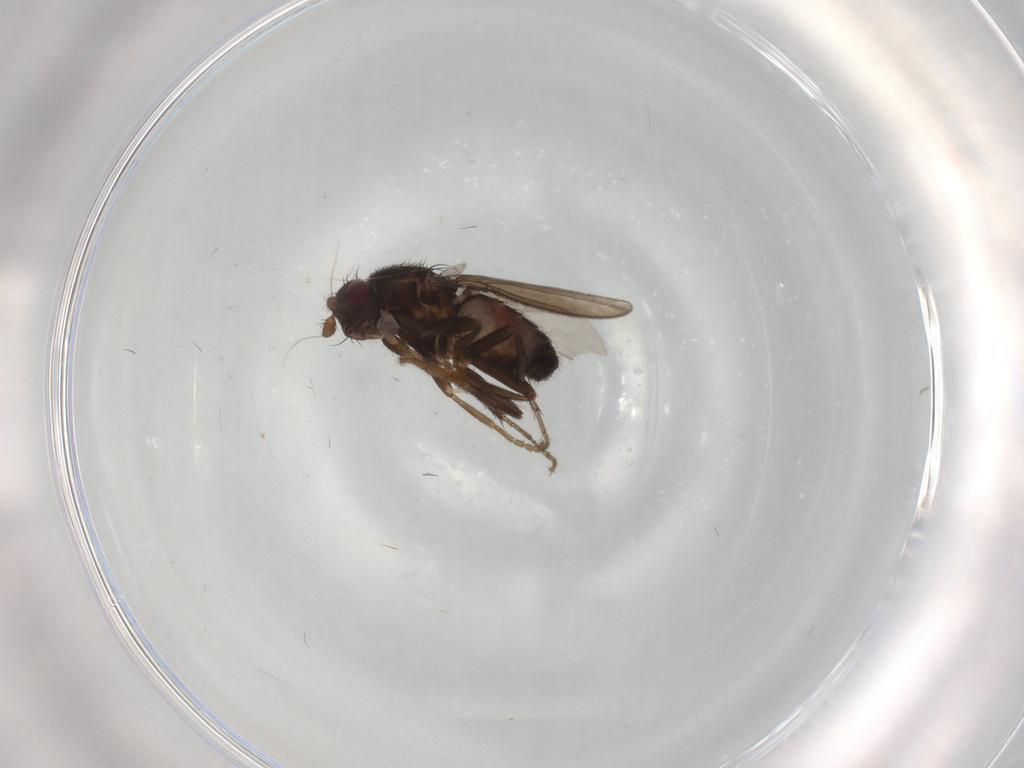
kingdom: Animalia
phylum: Arthropoda
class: Insecta
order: Diptera
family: Sphaeroceridae
